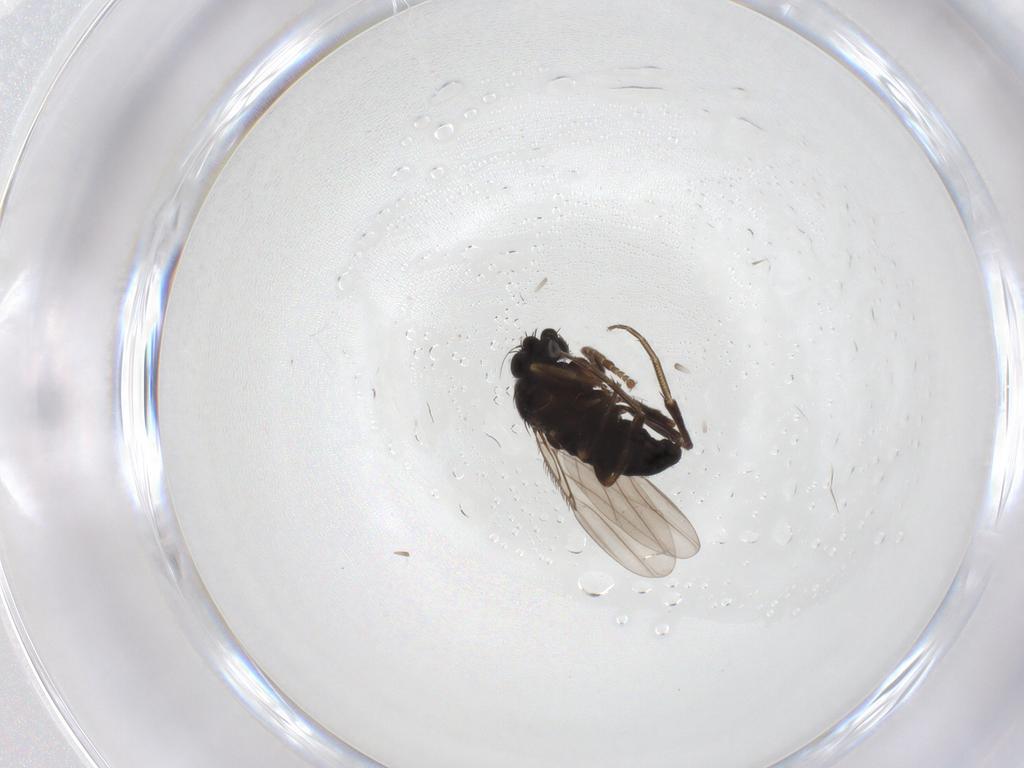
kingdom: Animalia
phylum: Arthropoda
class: Insecta
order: Diptera
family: Phoridae
